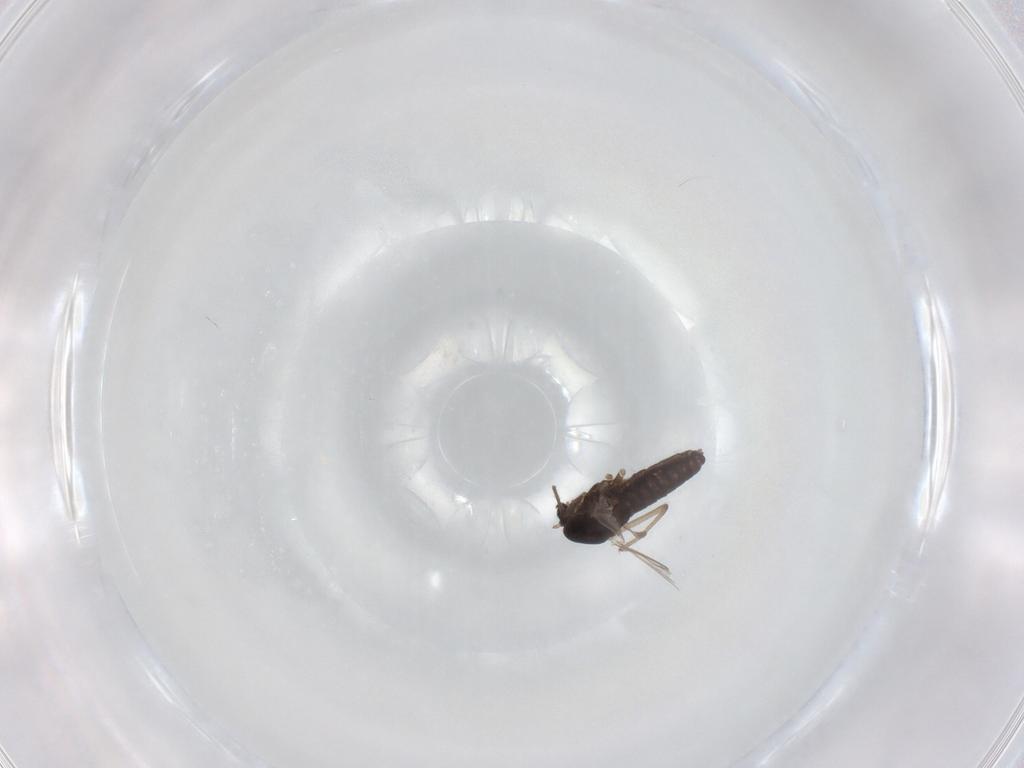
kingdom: Animalia
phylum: Arthropoda
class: Insecta
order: Diptera
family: Chironomidae
